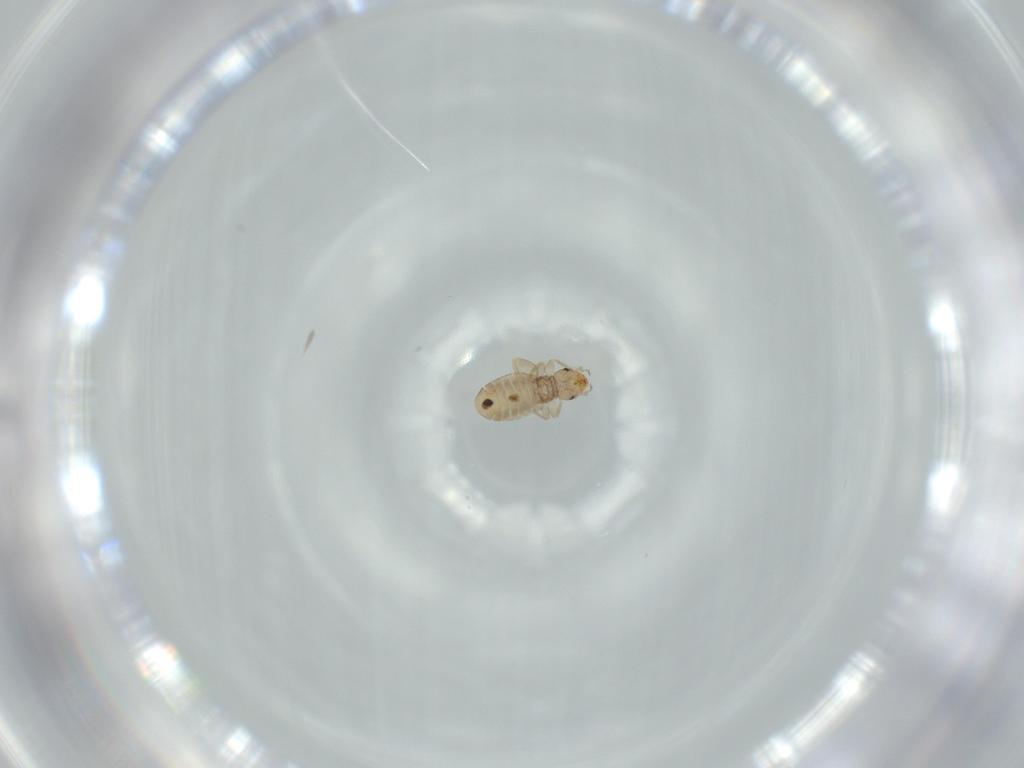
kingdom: Animalia
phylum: Arthropoda
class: Insecta
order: Psocodea
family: Liposcelididae
